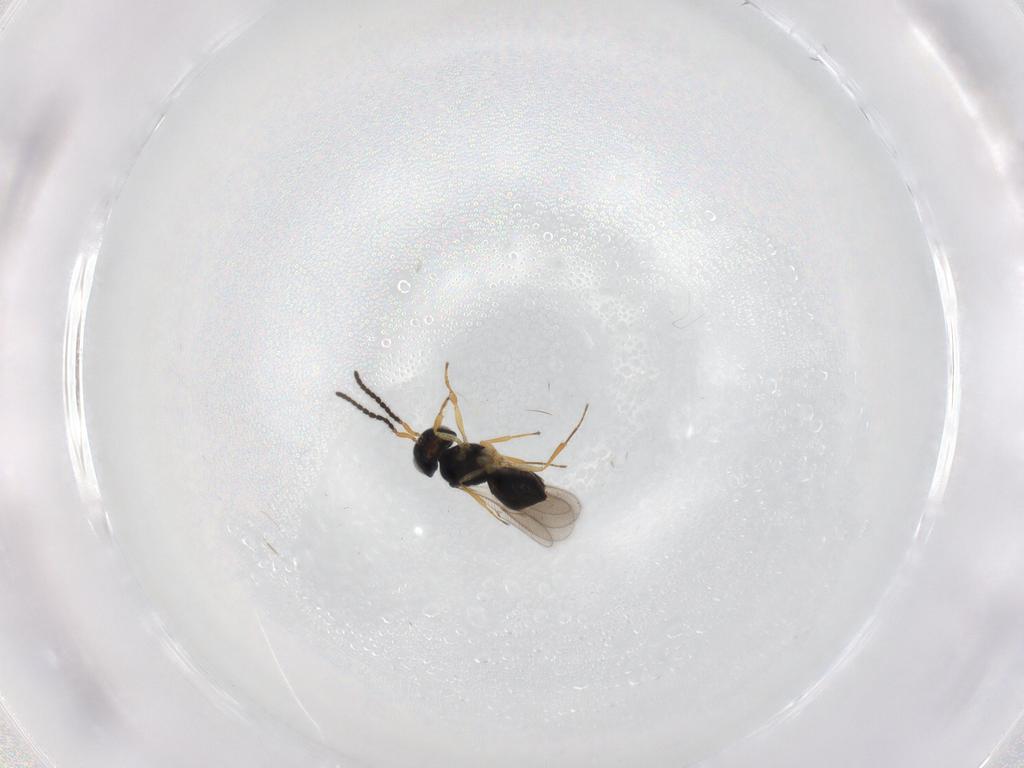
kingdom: Animalia
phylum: Arthropoda
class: Insecta
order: Hymenoptera
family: Scelionidae
